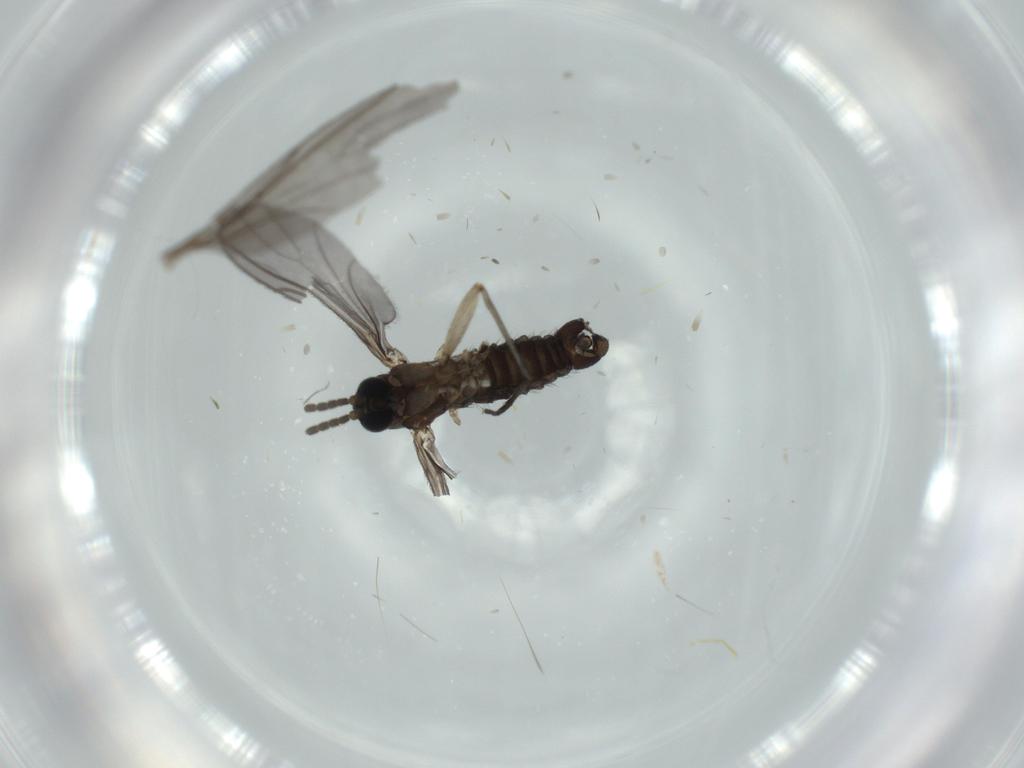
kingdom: Animalia
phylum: Arthropoda
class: Insecta
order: Diptera
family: Sciaridae
